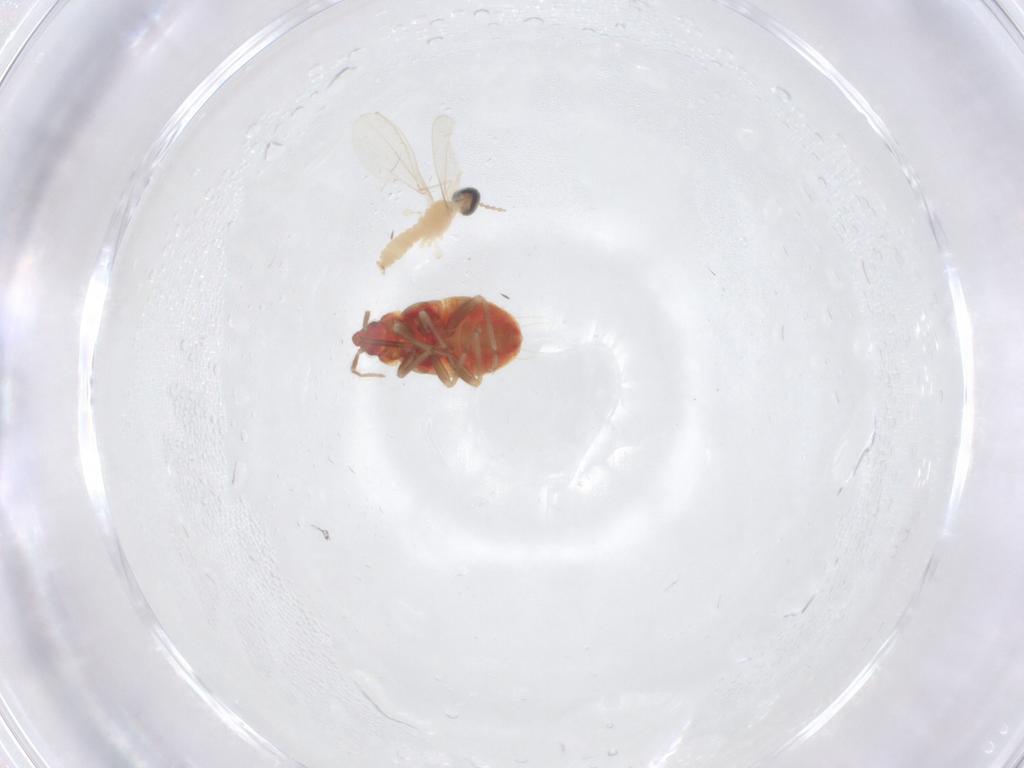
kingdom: Animalia
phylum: Arthropoda
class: Insecta
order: Diptera
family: Cecidomyiidae
